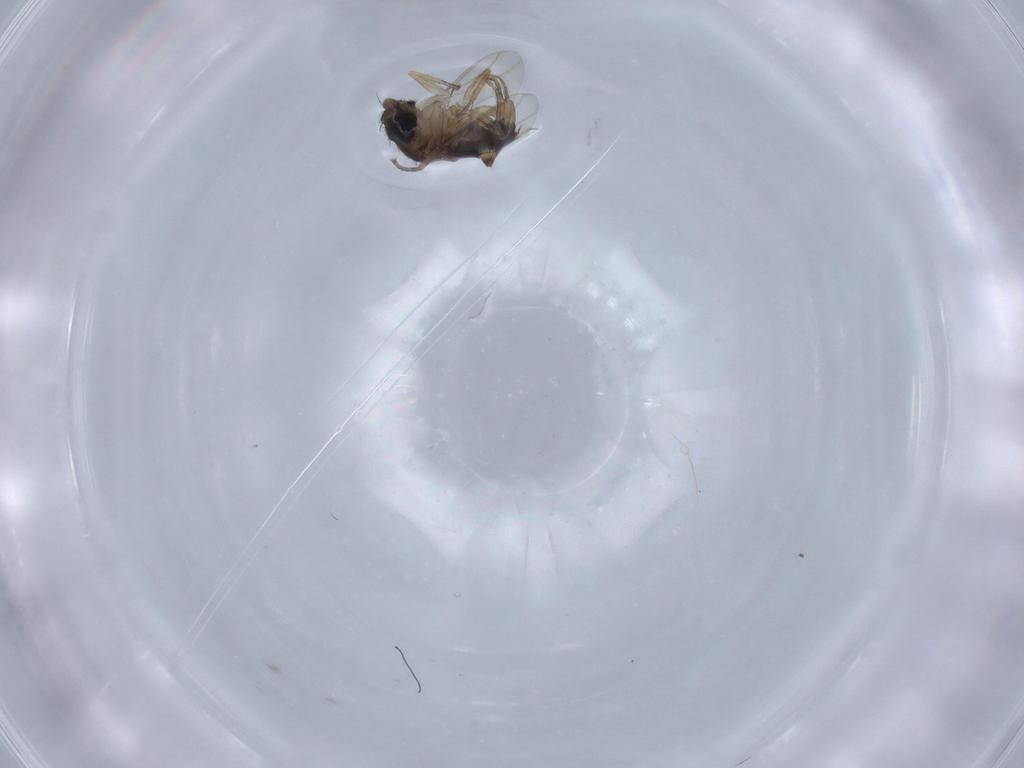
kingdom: Animalia
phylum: Arthropoda
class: Insecta
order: Diptera
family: Phoridae
